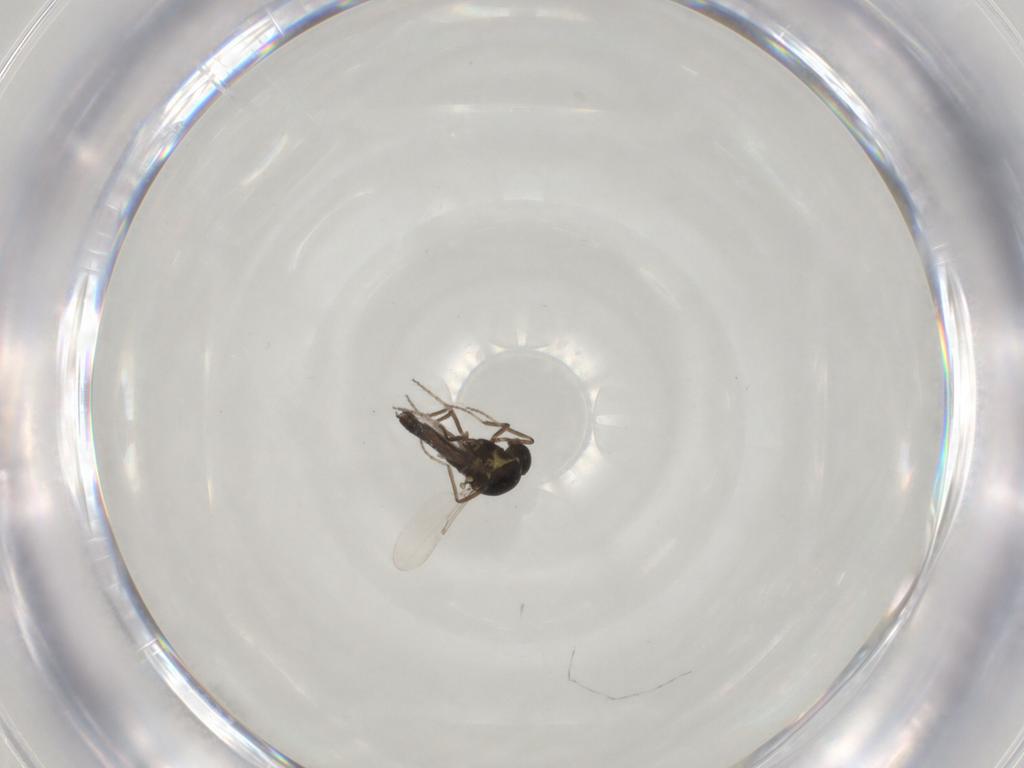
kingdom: Animalia
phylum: Arthropoda
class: Insecta
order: Diptera
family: Ceratopogonidae
